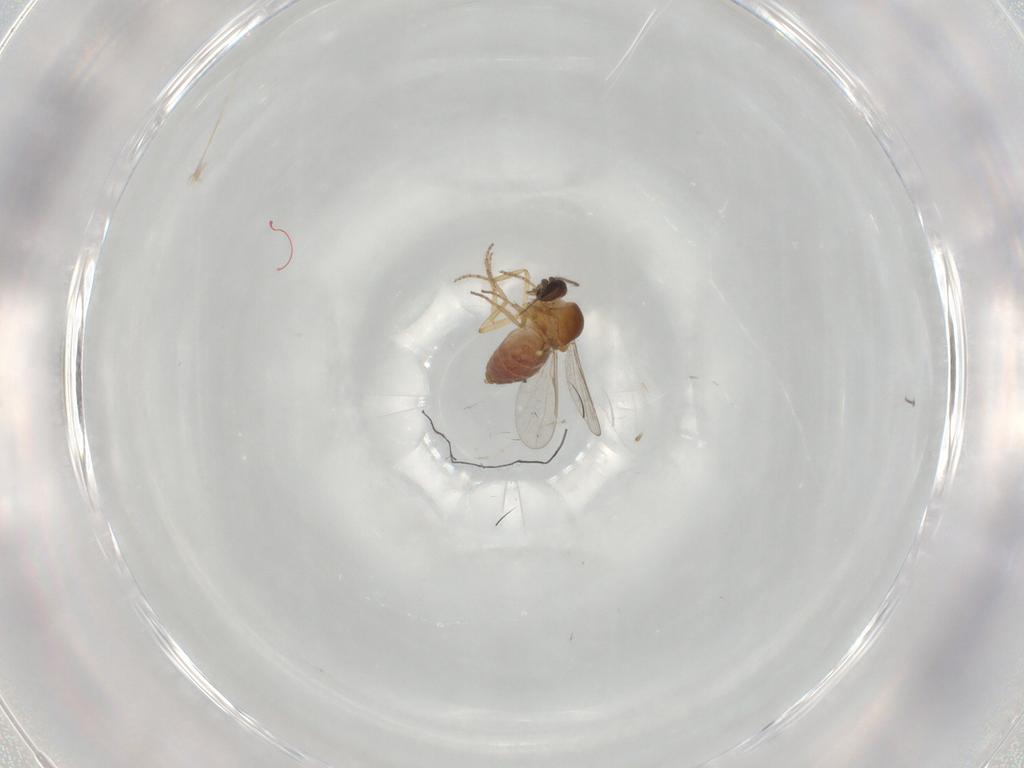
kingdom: Animalia
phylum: Arthropoda
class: Insecta
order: Diptera
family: Ceratopogonidae
